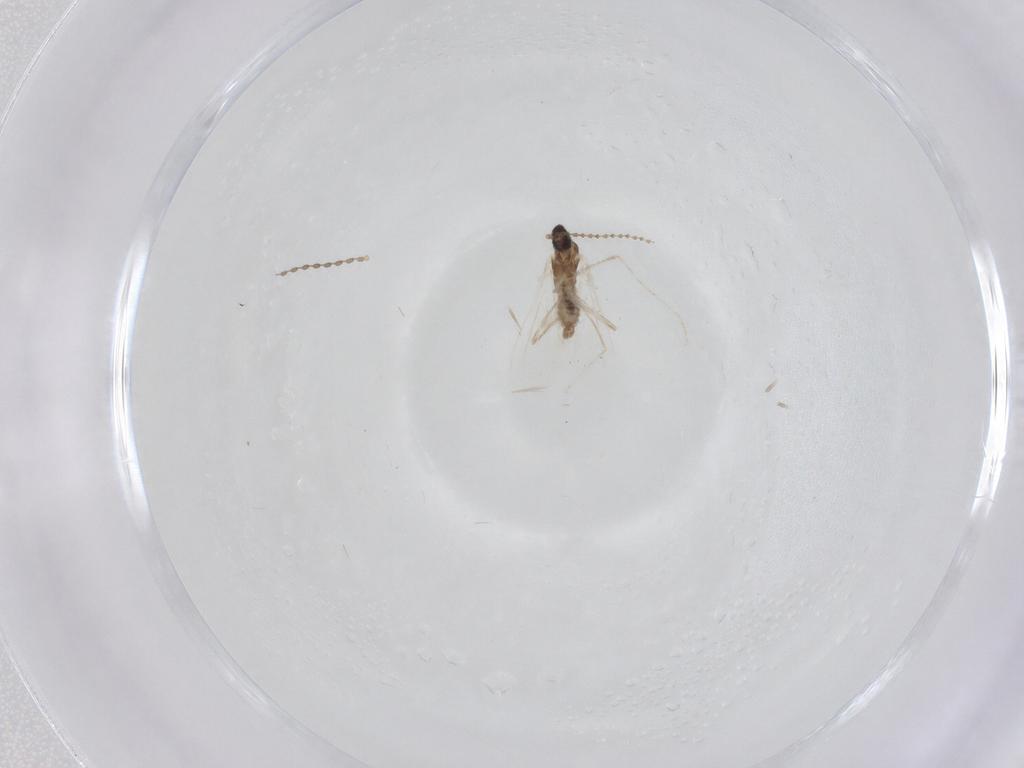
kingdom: Animalia
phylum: Arthropoda
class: Insecta
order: Diptera
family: Cecidomyiidae
